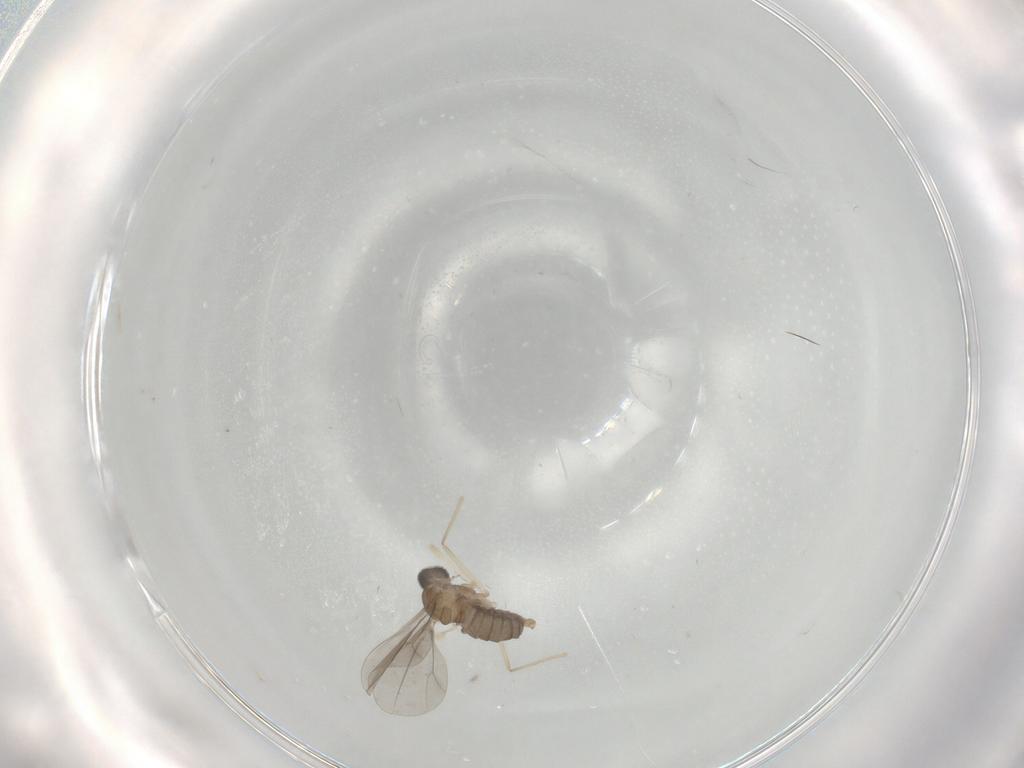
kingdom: Animalia
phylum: Arthropoda
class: Insecta
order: Diptera
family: Cecidomyiidae
